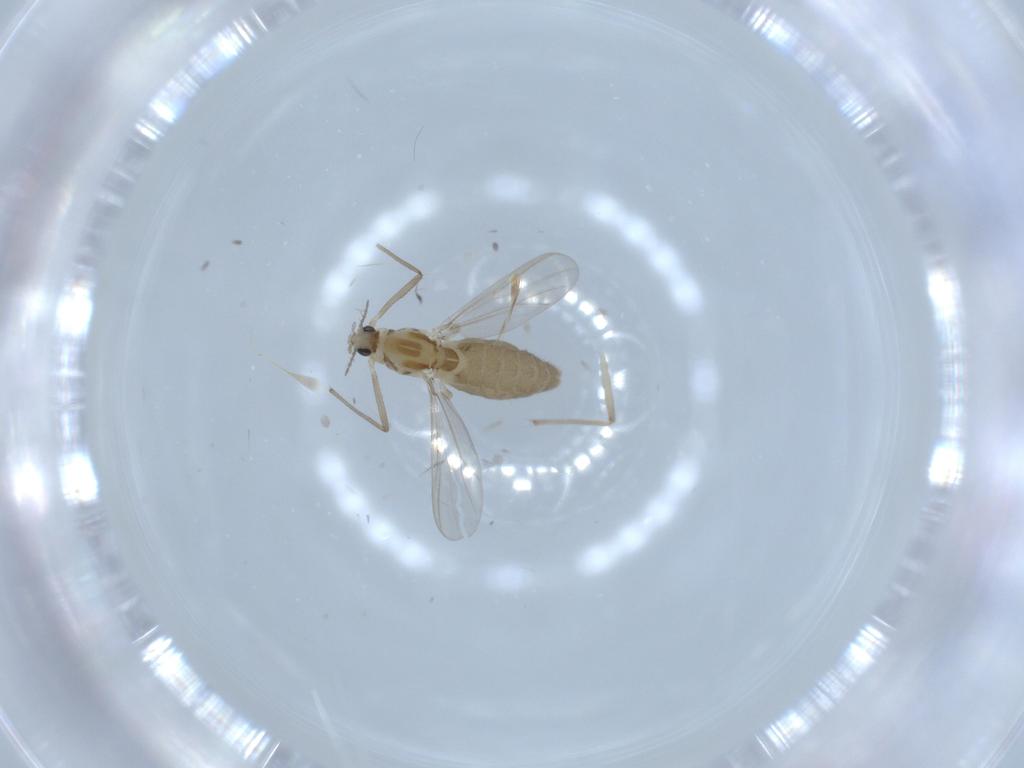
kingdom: Animalia
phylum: Arthropoda
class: Insecta
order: Diptera
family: Chironomidae
